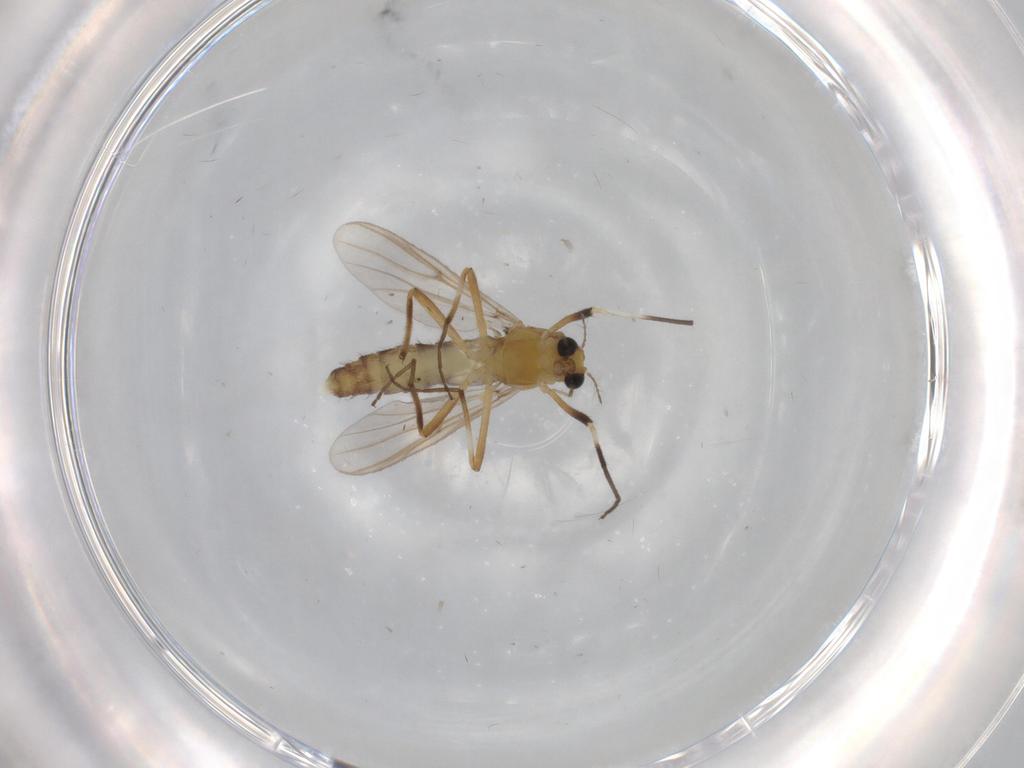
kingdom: Animalia
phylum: Arthropoda
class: Insecta
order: Diptera
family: Chironomidae
